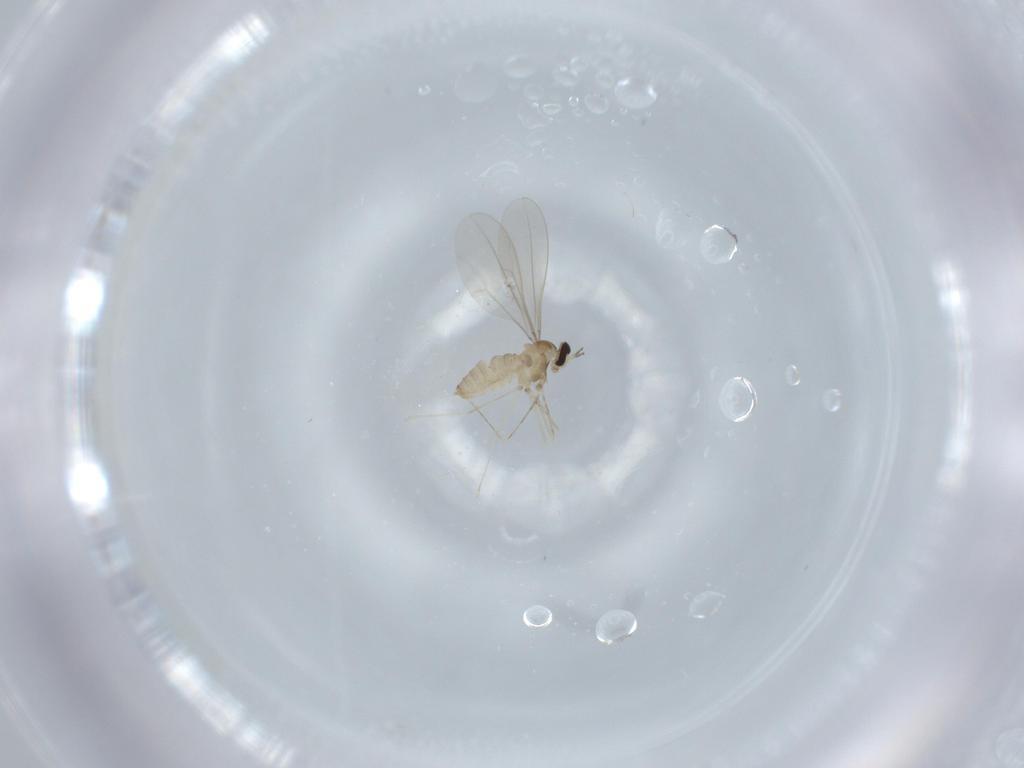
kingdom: Animalia
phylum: Arthropoda
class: Insecta
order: Diptera
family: Cecidomyiidae
